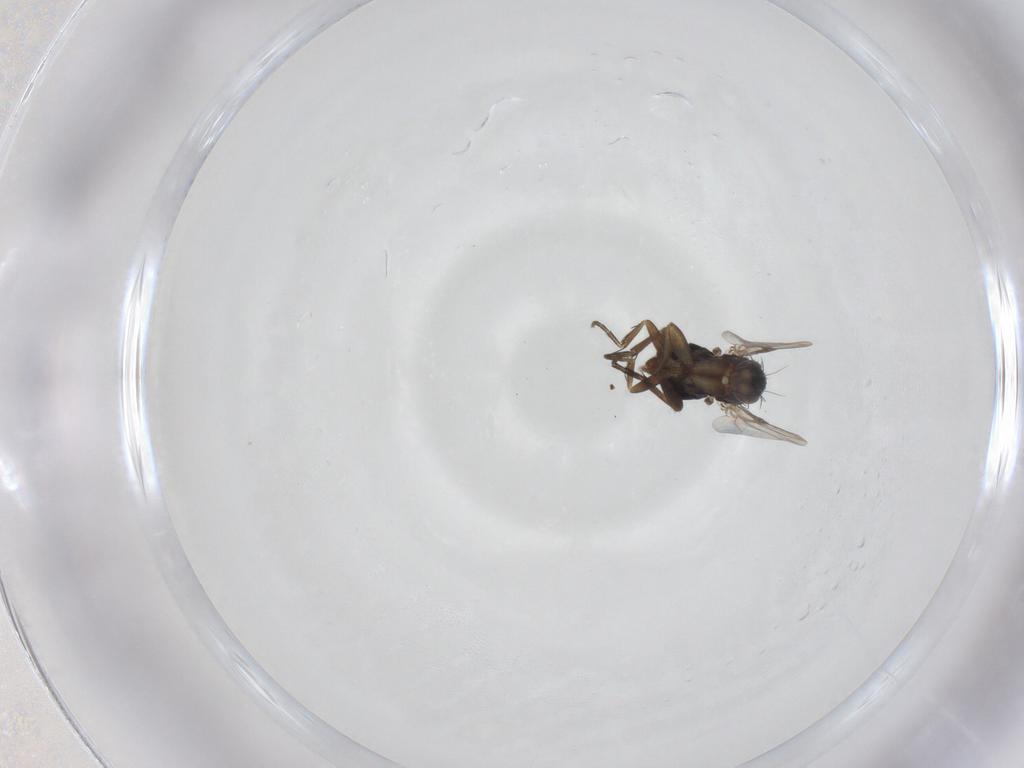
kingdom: Animalia
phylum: Arthropoda
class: Insecta
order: Diptera
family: Phoridae
